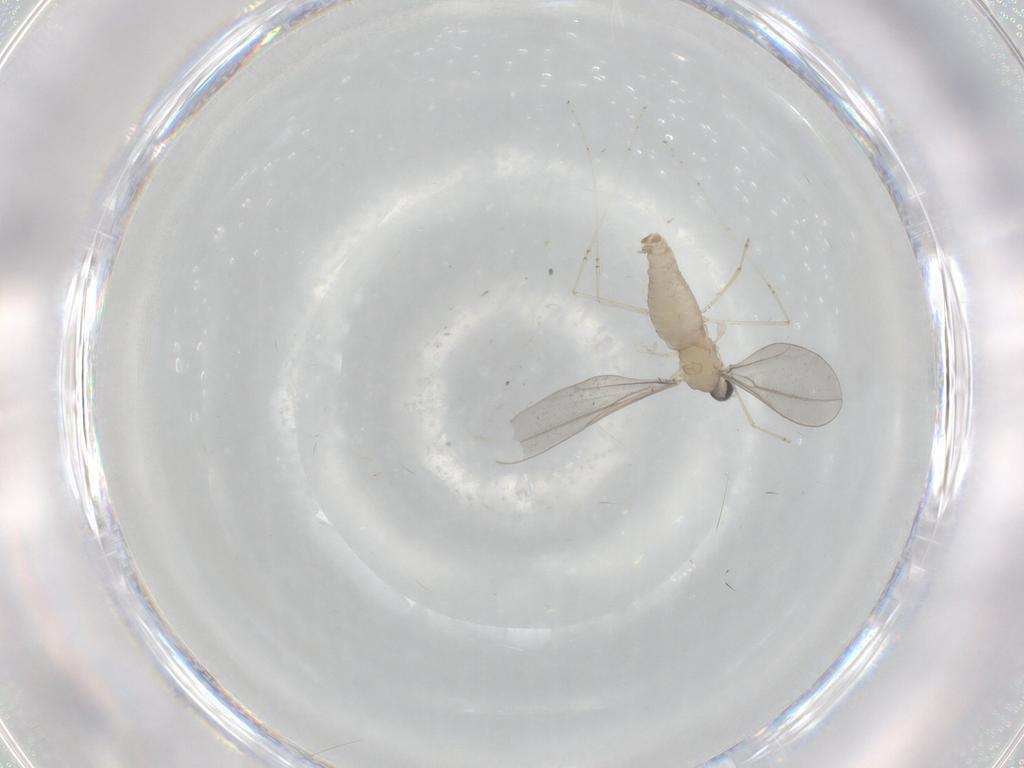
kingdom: Animalia
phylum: Arthropoda
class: Insecta
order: Diptera
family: Cecidomyiidae
